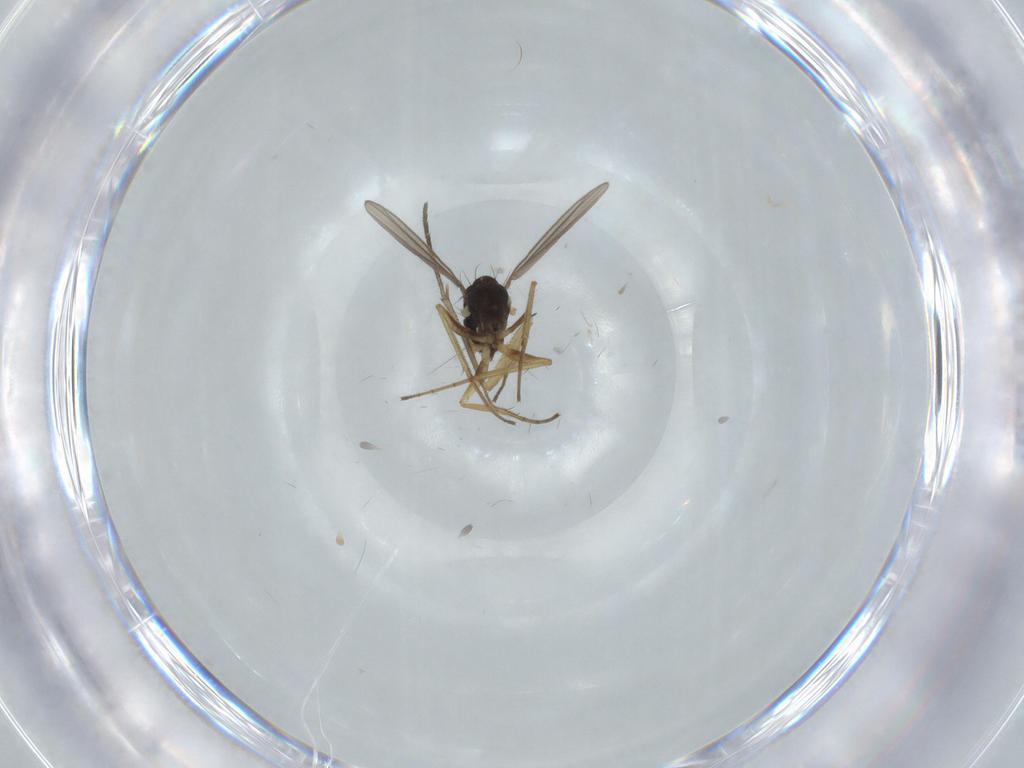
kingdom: Animalia
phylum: Arthropoda
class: Insecta
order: Diptera
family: Dolichopodidae
